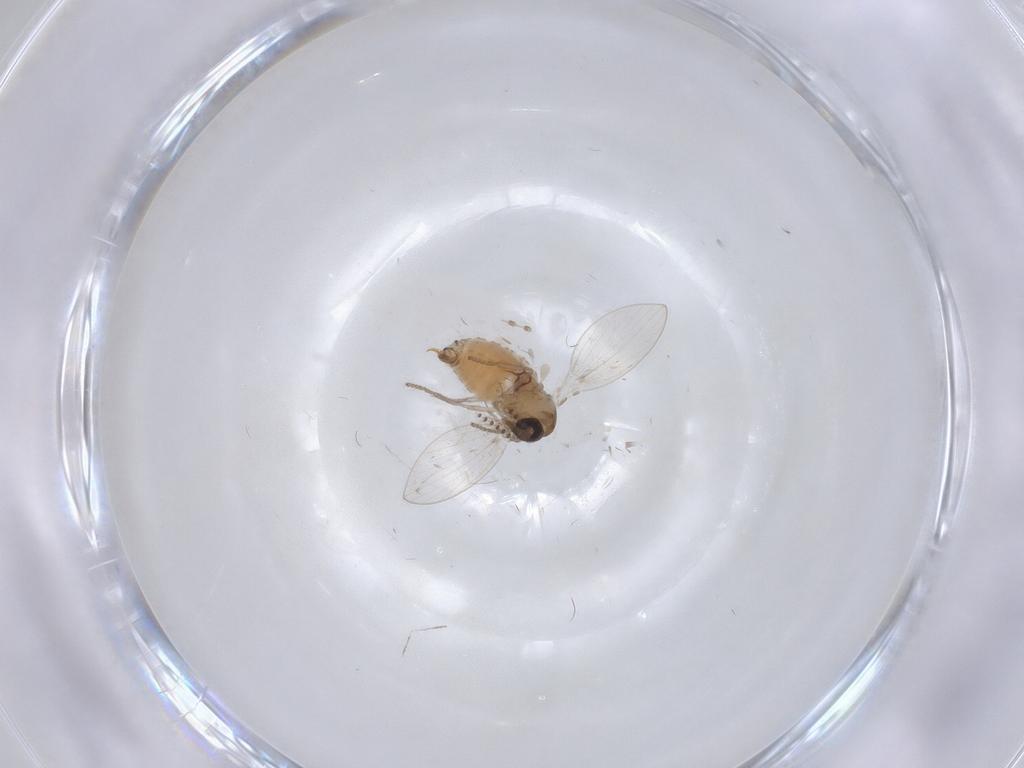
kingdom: Animalia
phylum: Arthropoda
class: Insecta
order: Diptera
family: Psychodidae
